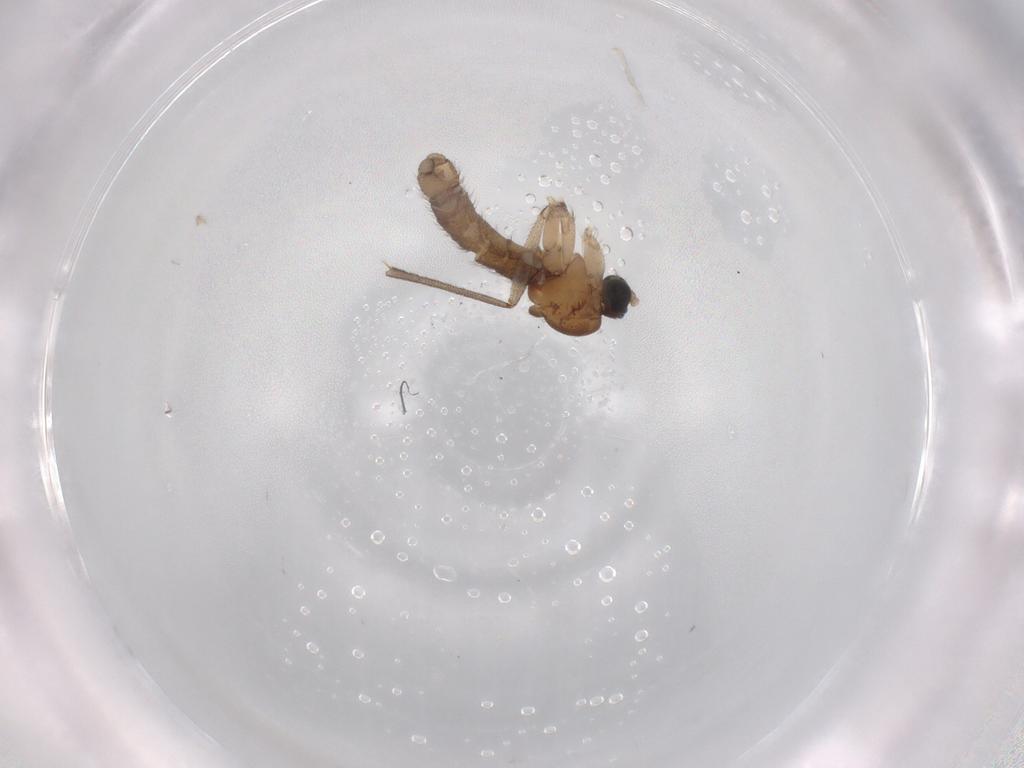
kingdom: Animalia
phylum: Arthropoda
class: Insecta
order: Diptera
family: Sciaridae
